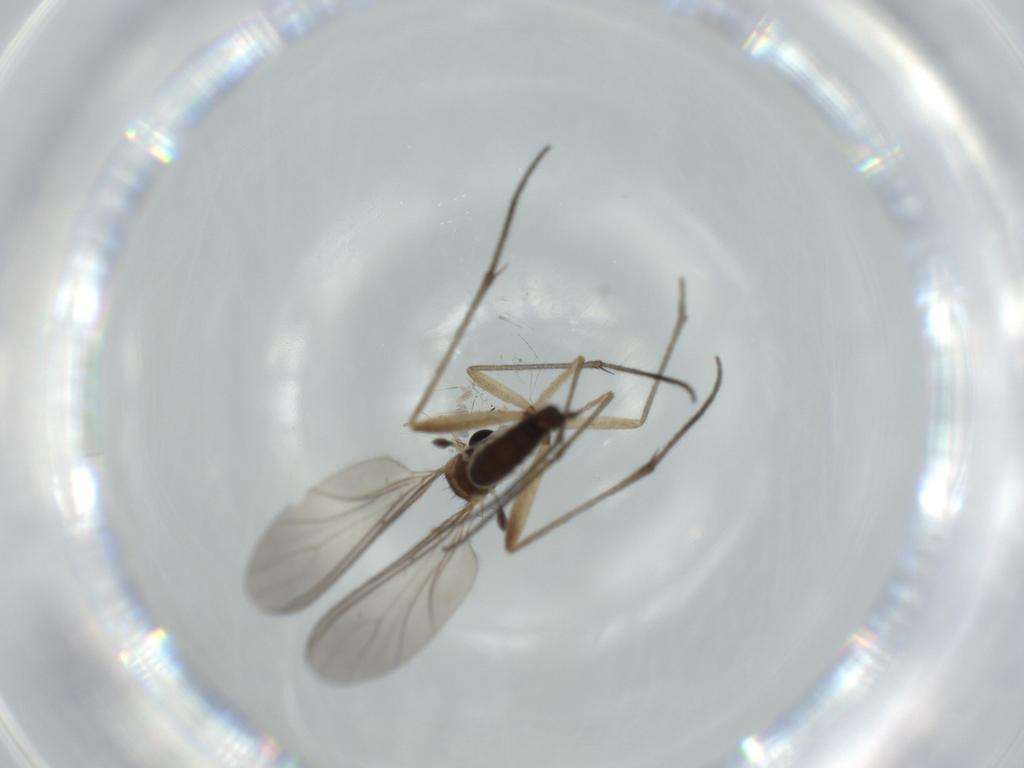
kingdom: Animalia
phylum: Arthropoda
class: Insecta
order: Diptera
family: Sciaridae
